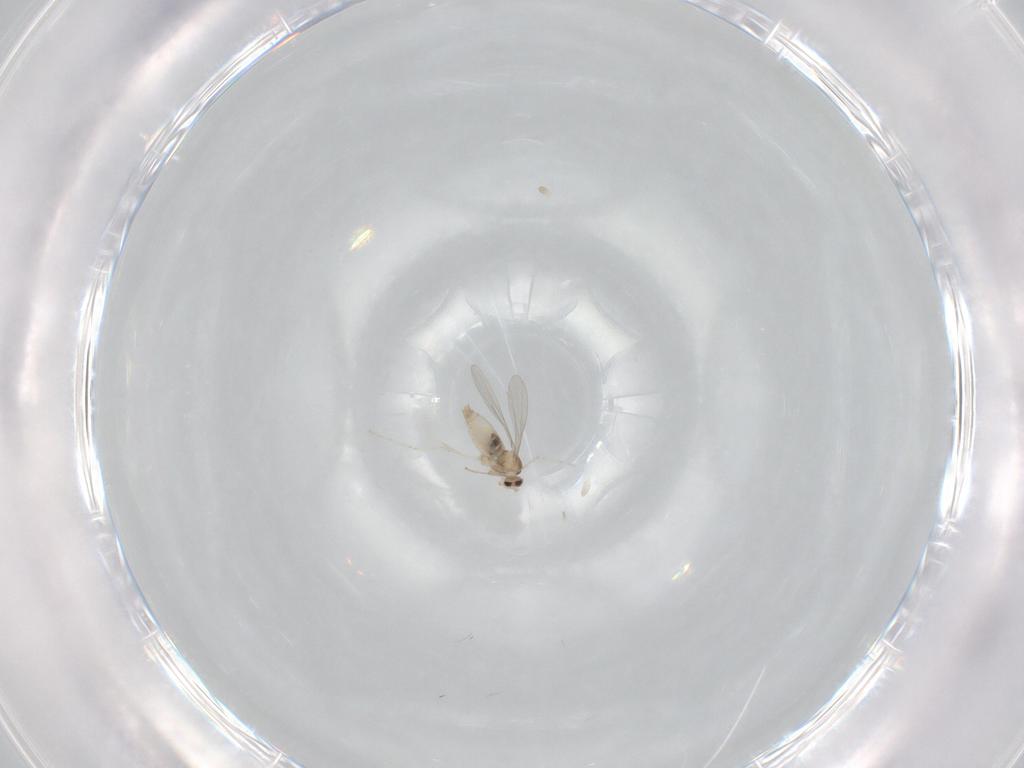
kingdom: Animalia
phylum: Arthropoda
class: Insecta
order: Diptera
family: Cecidomyiidae
